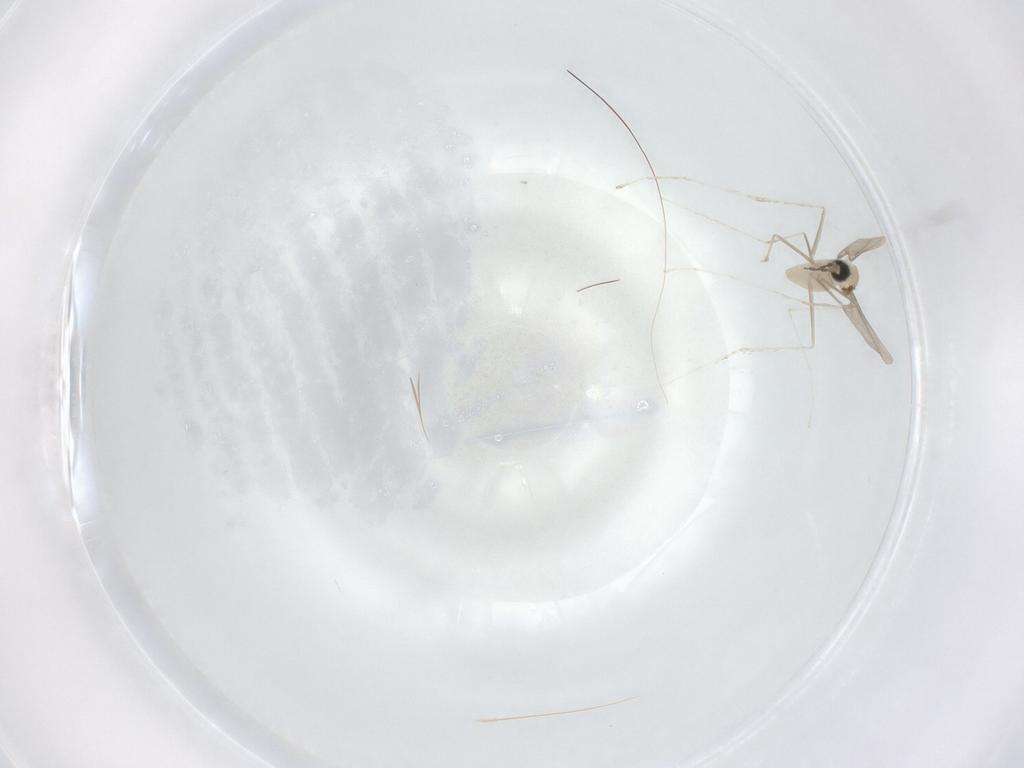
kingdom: Animalia
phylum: Arthropoda
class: Insecta
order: Diptera
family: Cecidomyiidae
